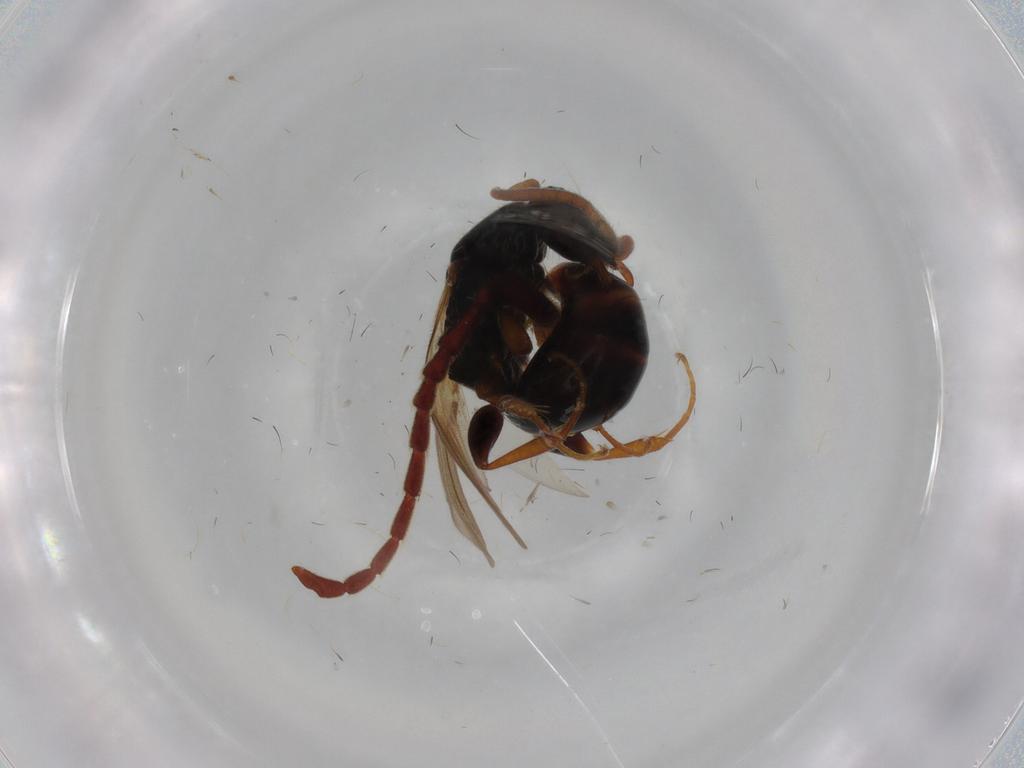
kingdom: Animalia
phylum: Arthropoda
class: Insecta
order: Hymenoptera
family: Bethylidae
